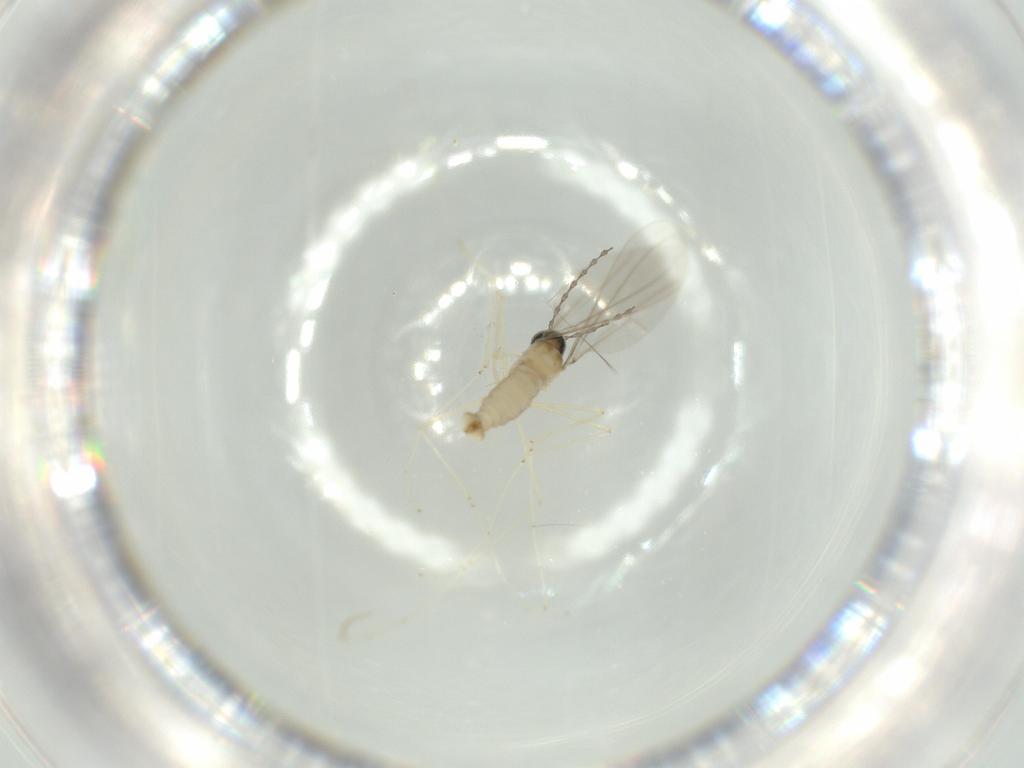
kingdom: Animalia
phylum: Arthropoda
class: Insecta
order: Diptera
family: Cecidomyiidae
